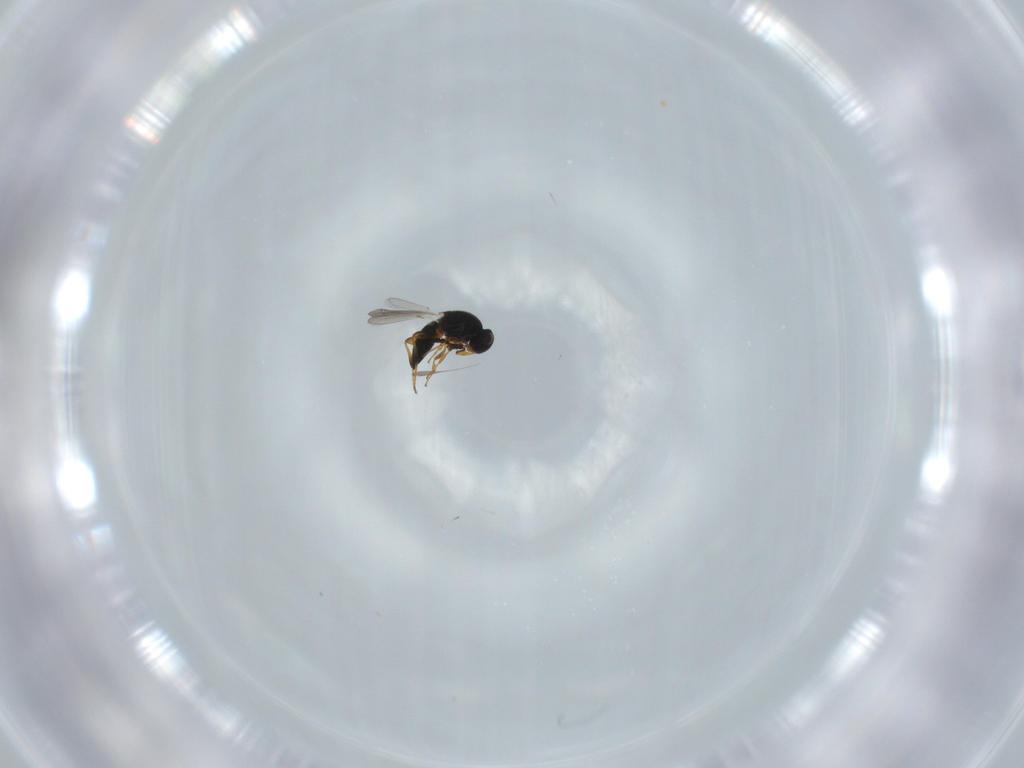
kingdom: Animalia
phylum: Arthropoda
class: Insecta
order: Hymenoptera
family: Platygastridae
